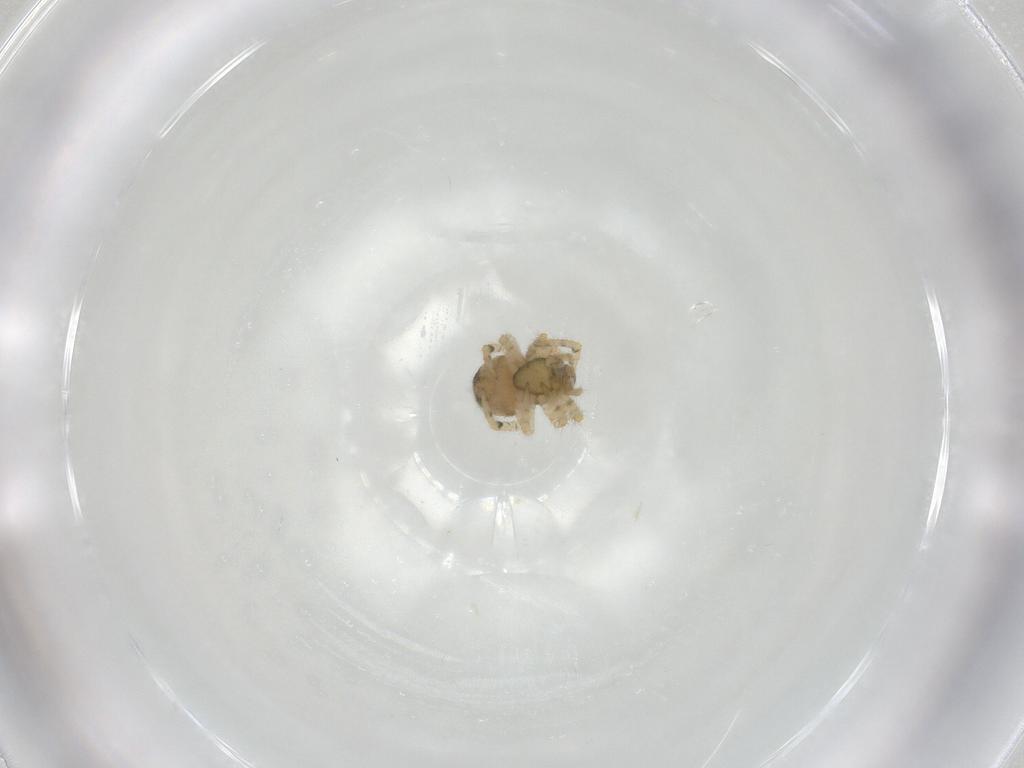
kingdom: Animalia
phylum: Arthropoda
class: Arachnida
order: Araneae
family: Theridiidae
